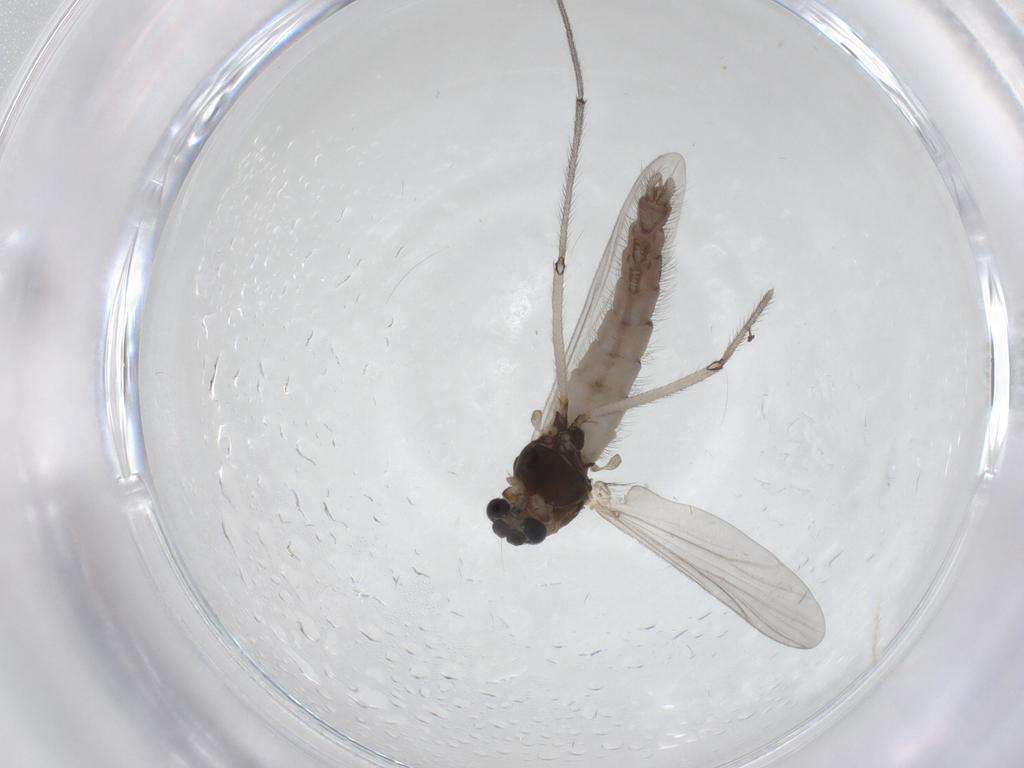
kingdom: Animalia
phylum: Arthropoda
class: Insecta
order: Diptera
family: Chironomidae
